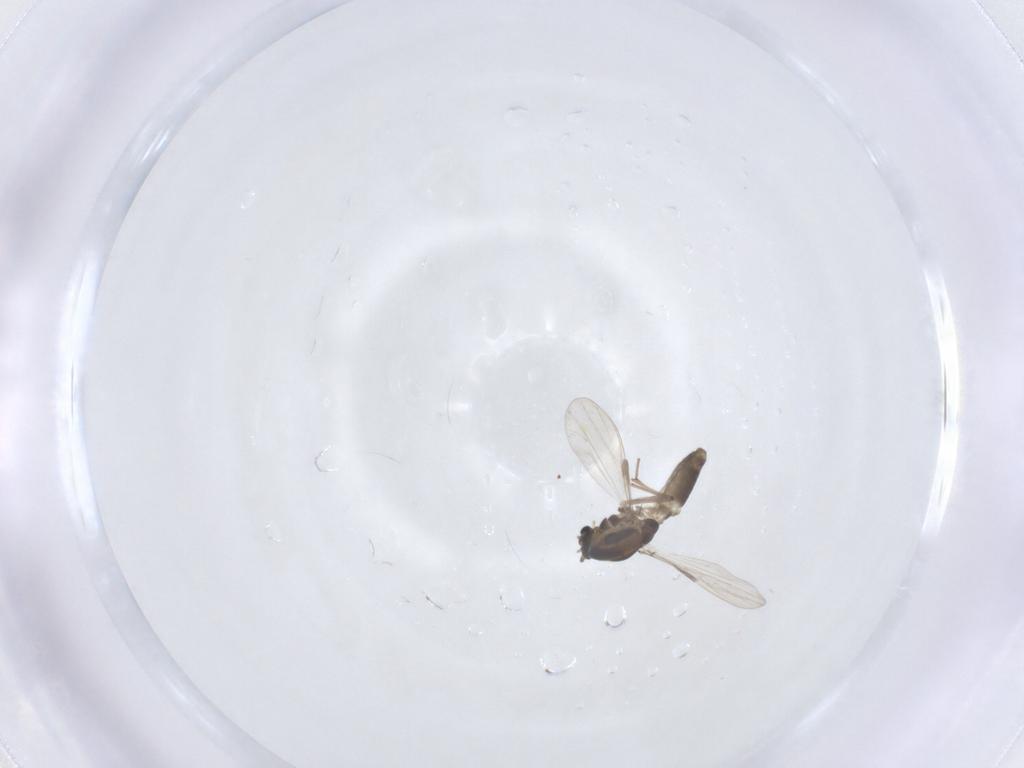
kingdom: Animalia
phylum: Arthropoda
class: Insecta
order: Diptera
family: Chironomidae
